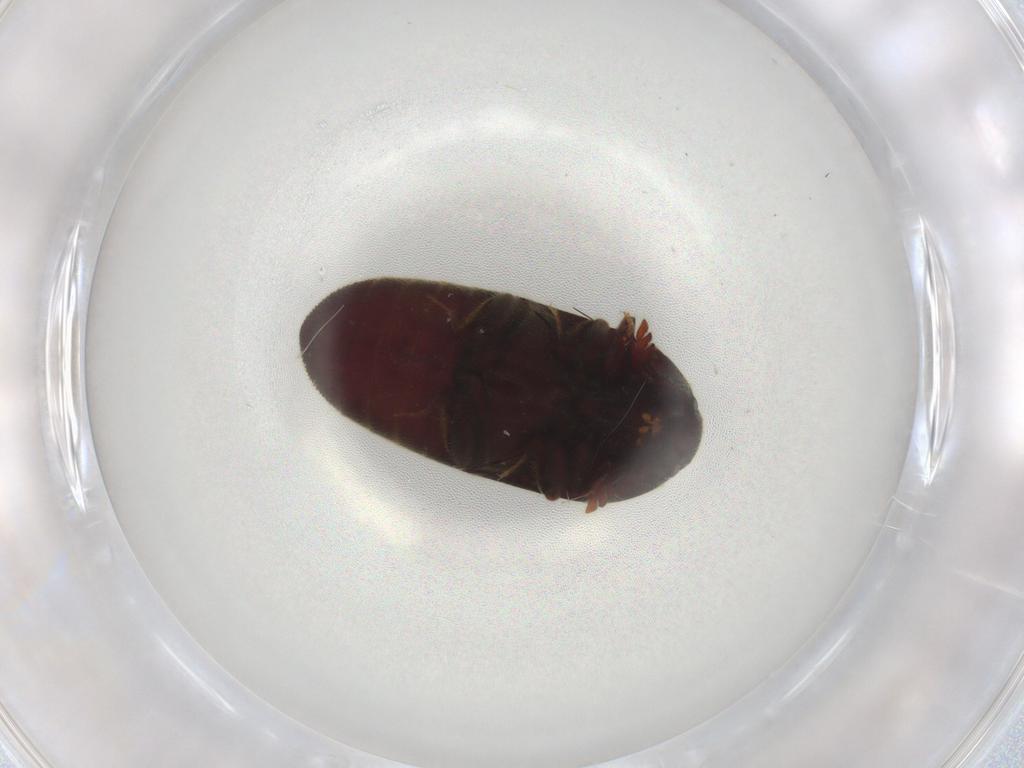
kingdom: Animalia
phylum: Arthropoda
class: Insecta
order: Coleoptera
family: Throscidae
